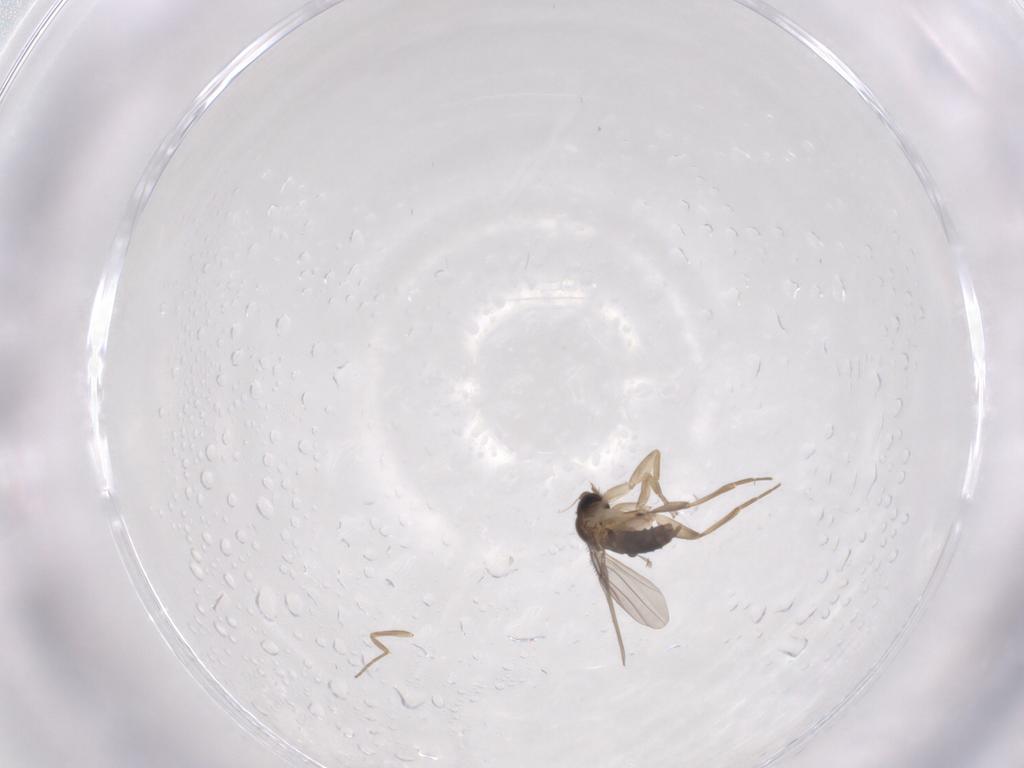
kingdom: Animalia
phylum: Arthropoda
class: Insecta
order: Diptera
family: Phoridae
